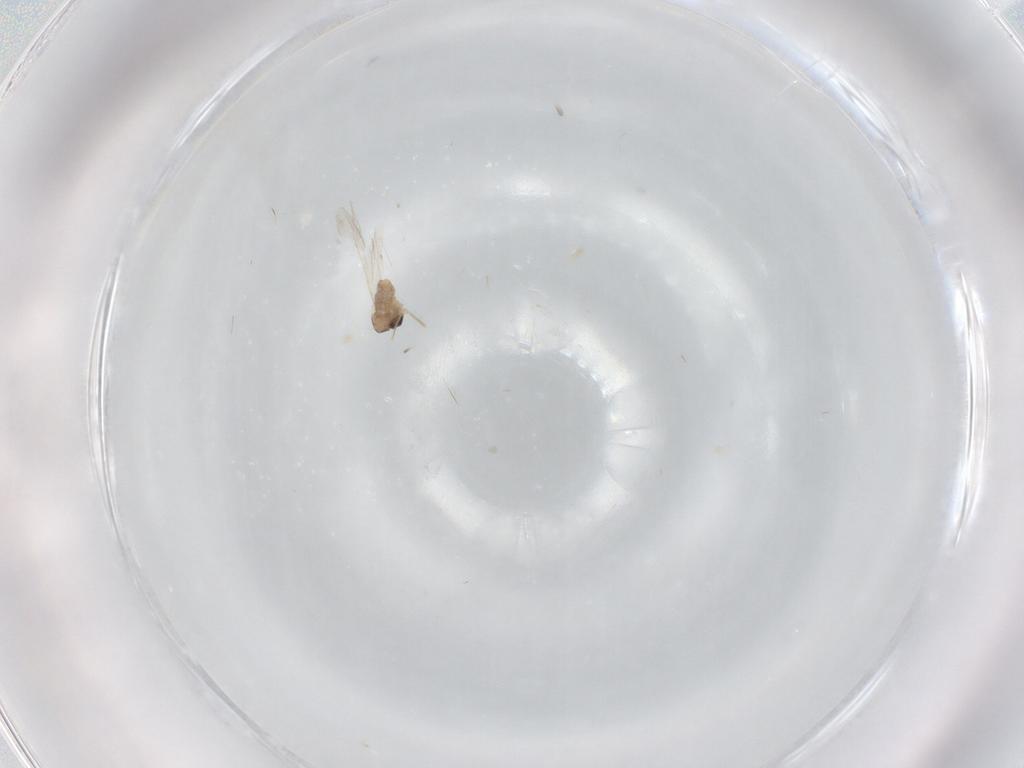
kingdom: Animalia
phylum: Arthropoda
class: Insecta
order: Diptera
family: Cecidomyiidae
